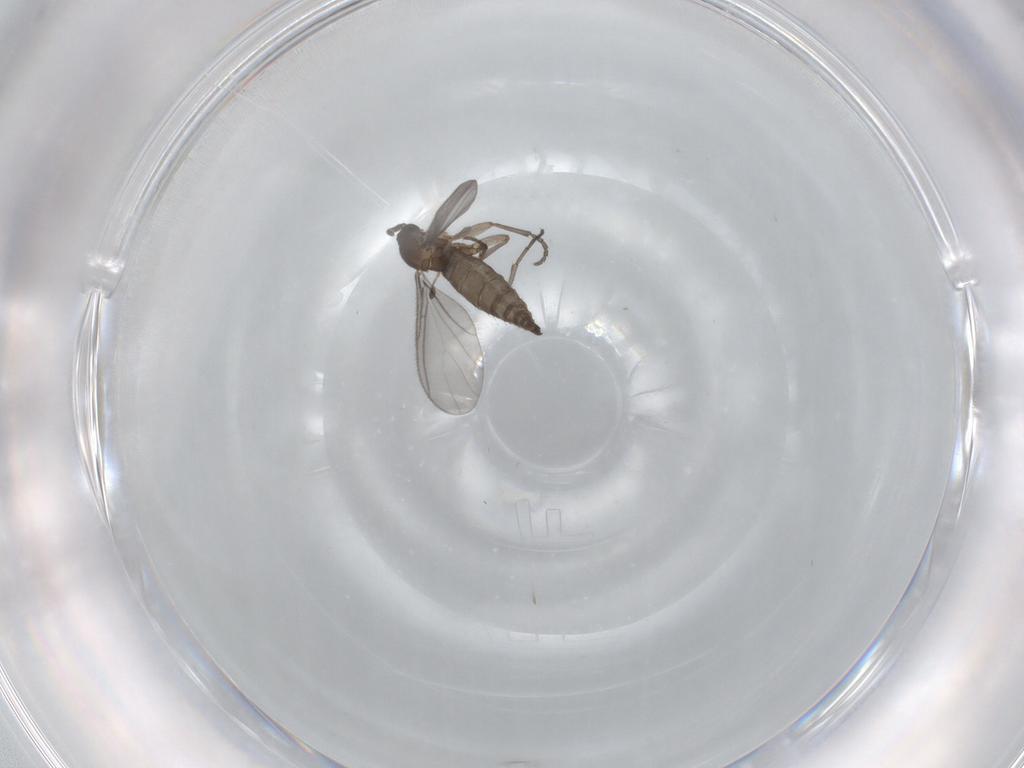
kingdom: Animalia
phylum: Arthropoda
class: Insecta
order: Diptera
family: Sciaridae
